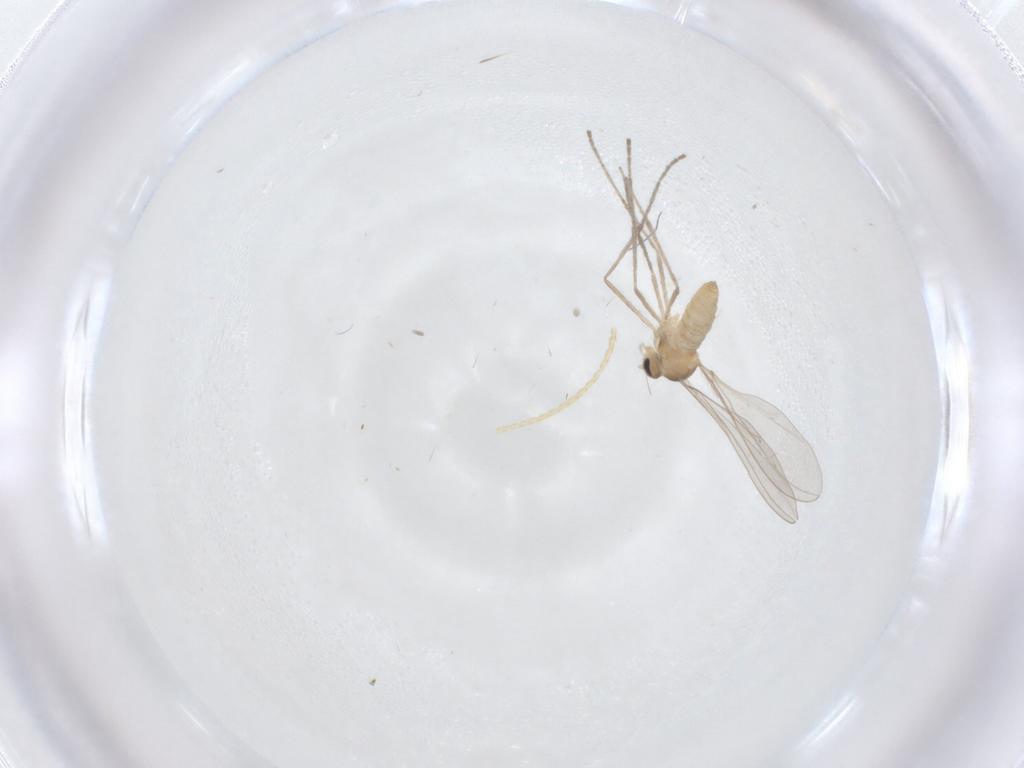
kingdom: Animalia
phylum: Arthropoda
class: Insecta
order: Diptera
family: Cecidomyiidae
